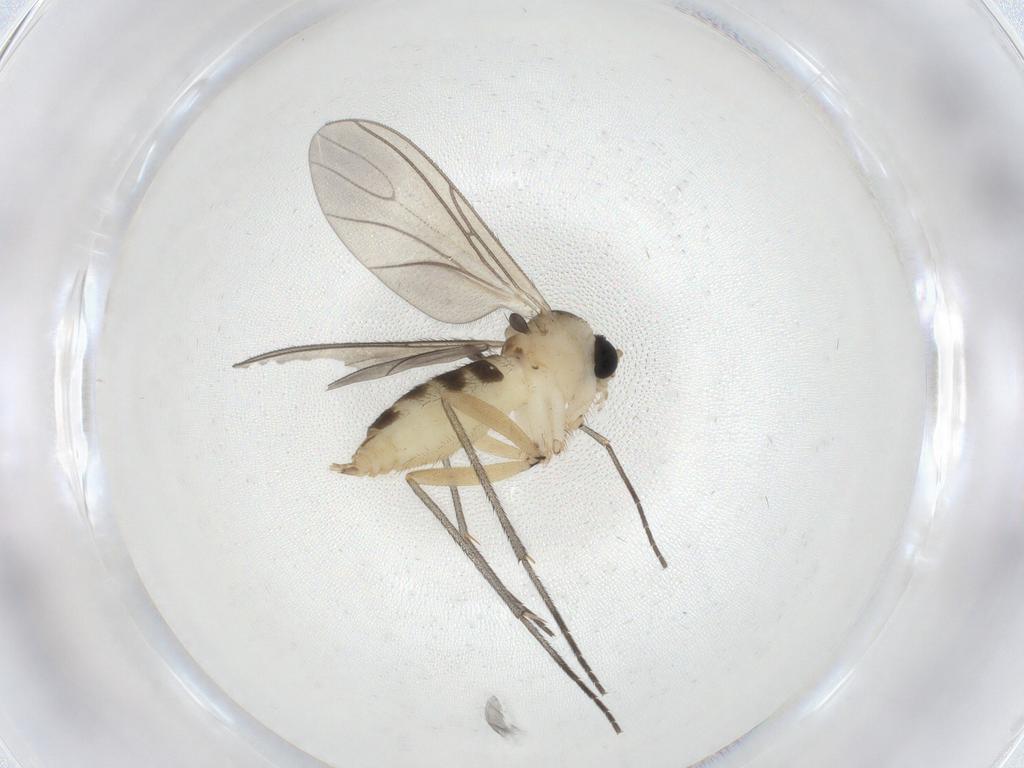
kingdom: Animalia
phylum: Arthropoda
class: Insecta
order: Diptera
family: Sciaridae
